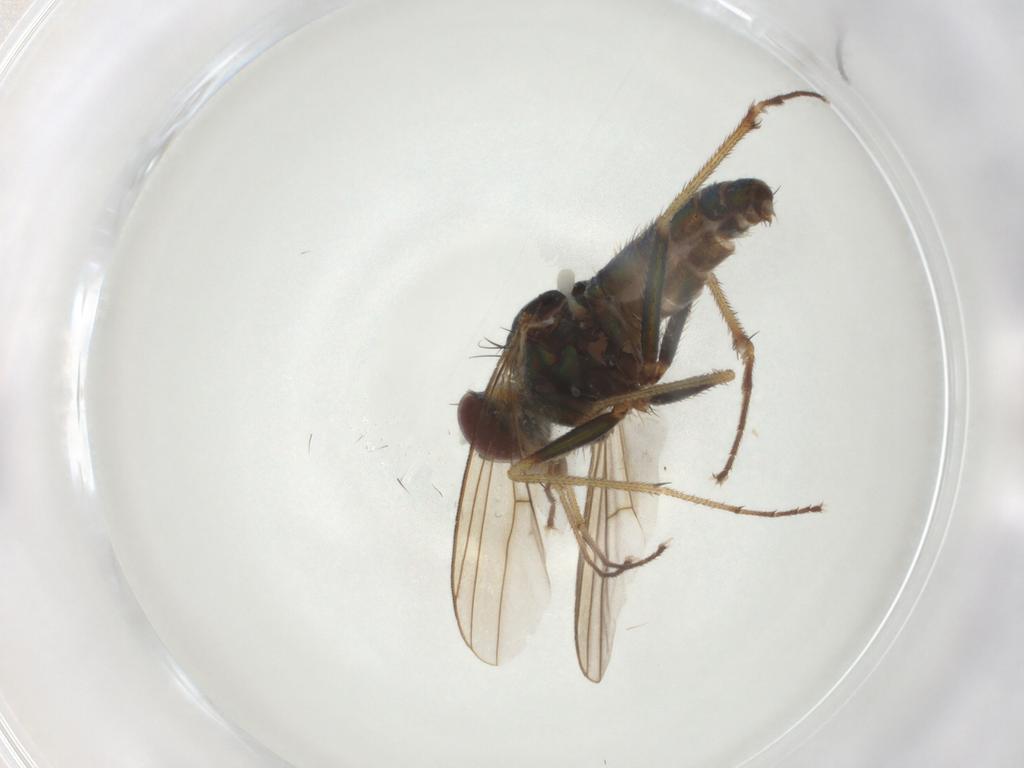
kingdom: Animalia
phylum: Arthropoda
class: Insecta
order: Diptera
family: Dolichopodidae
